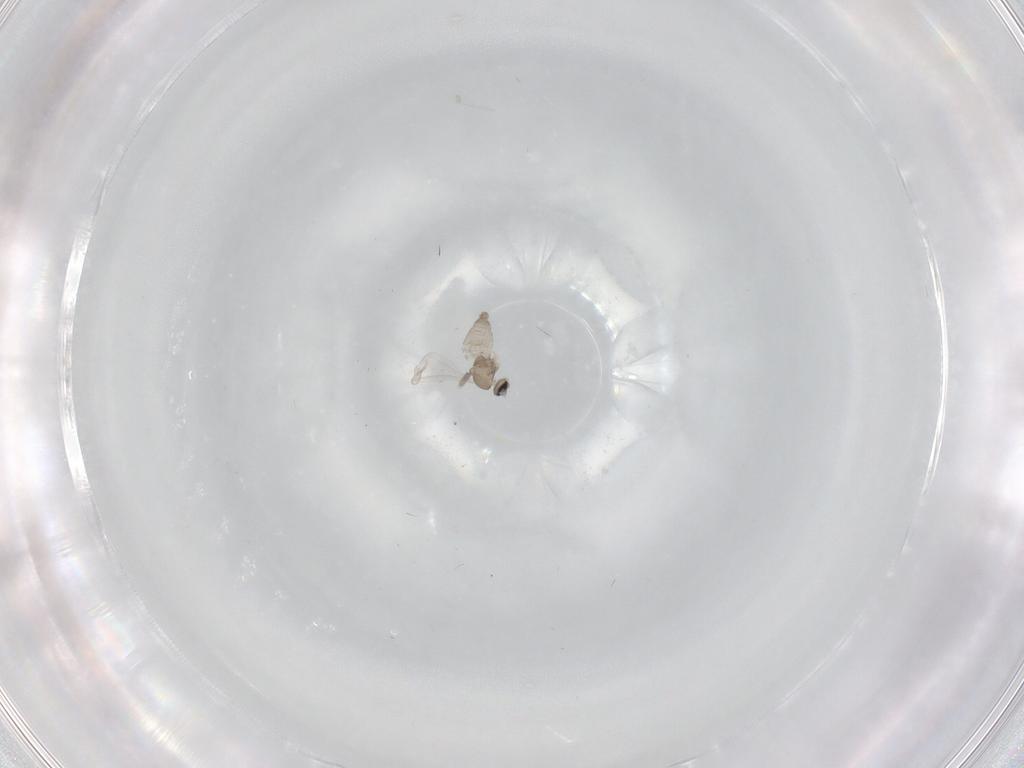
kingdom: Animalia
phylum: Arthropoda
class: Insecta
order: Diptera
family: Cecidomyiidae
